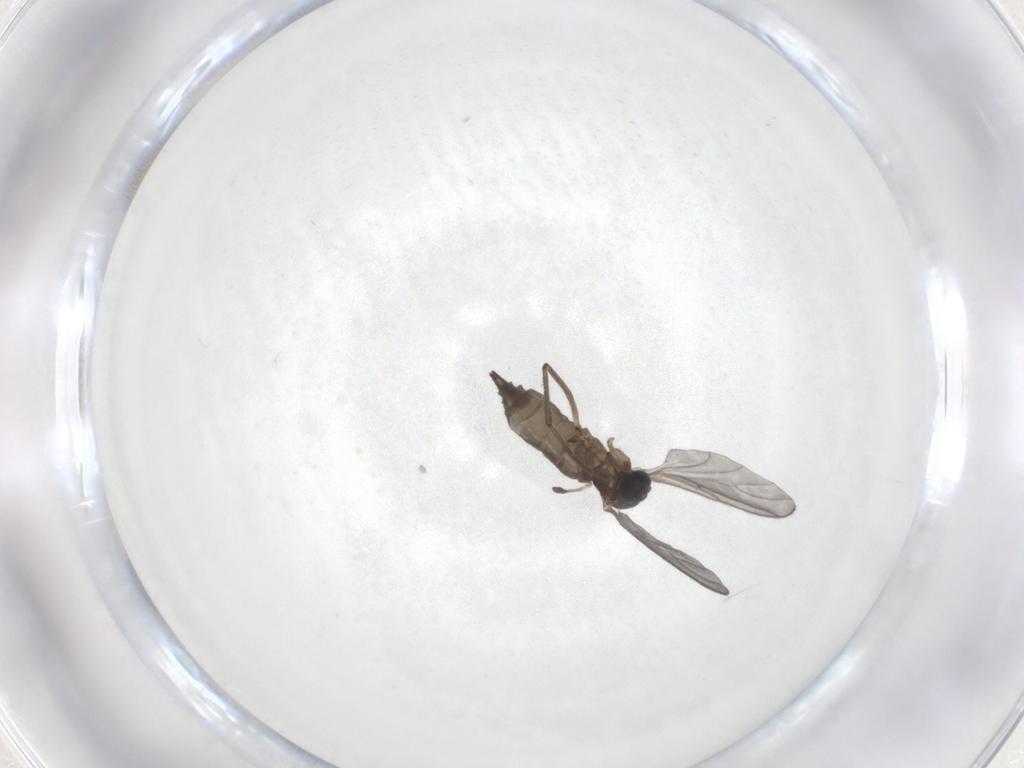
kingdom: Animalia
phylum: Arthropoda
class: Insecta
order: Diptera
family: Sciaridae
